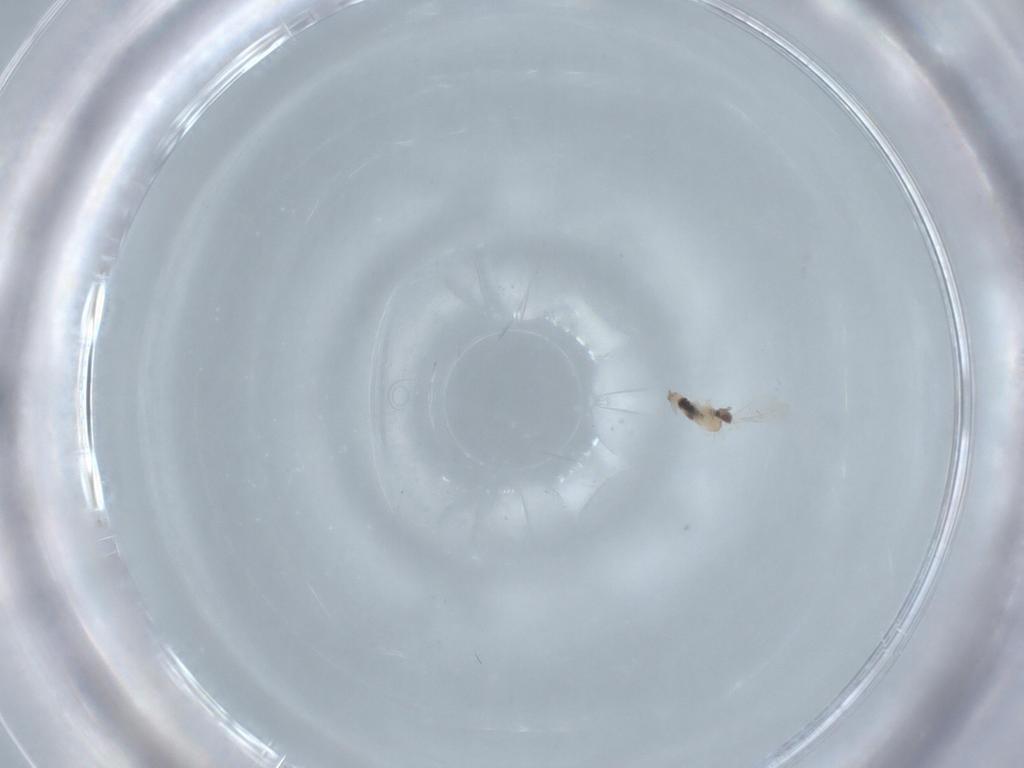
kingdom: Animalia
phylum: Arthropoda
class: Insecta
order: Diptera
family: Cecidomyiidae
